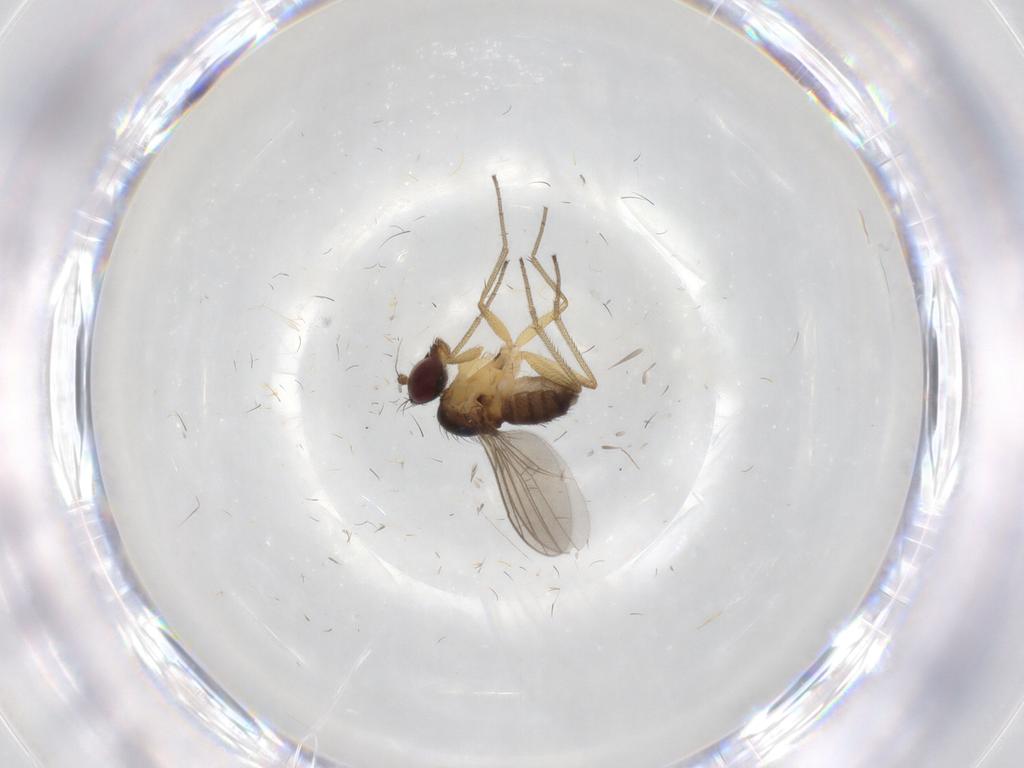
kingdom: Animalia
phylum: Arthropoda
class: Insecta
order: Diptera
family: Dolichopodidae
